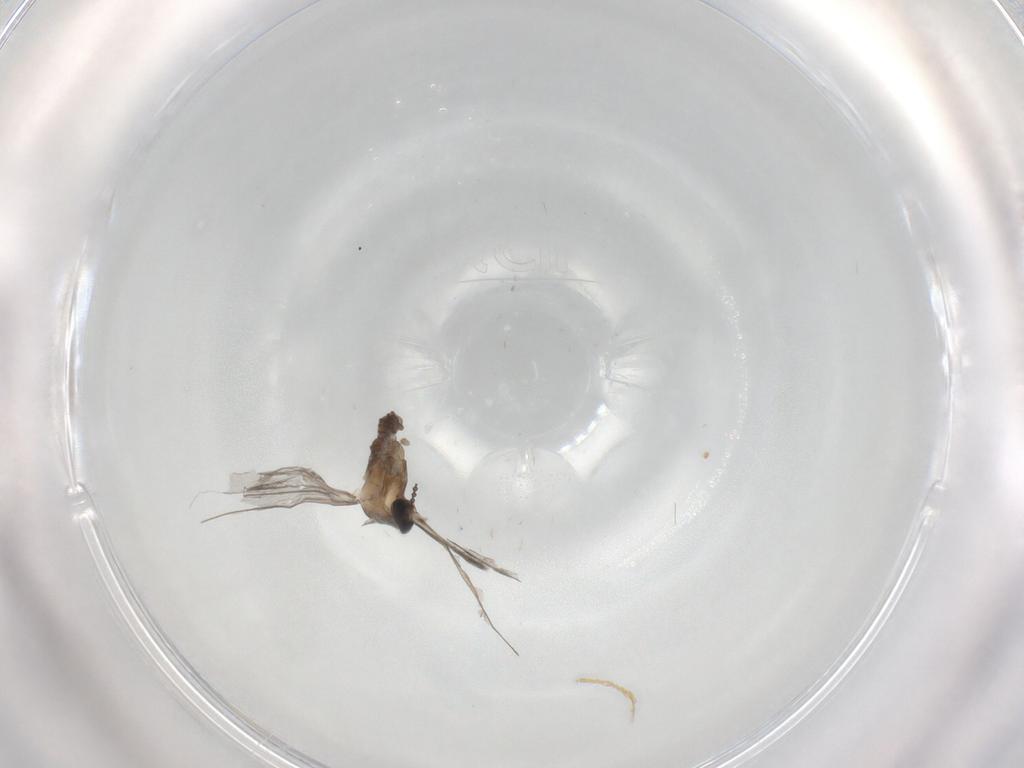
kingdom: Animalia
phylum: Arthropoda
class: Insecta
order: Diptera
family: Cecidomyiidae
